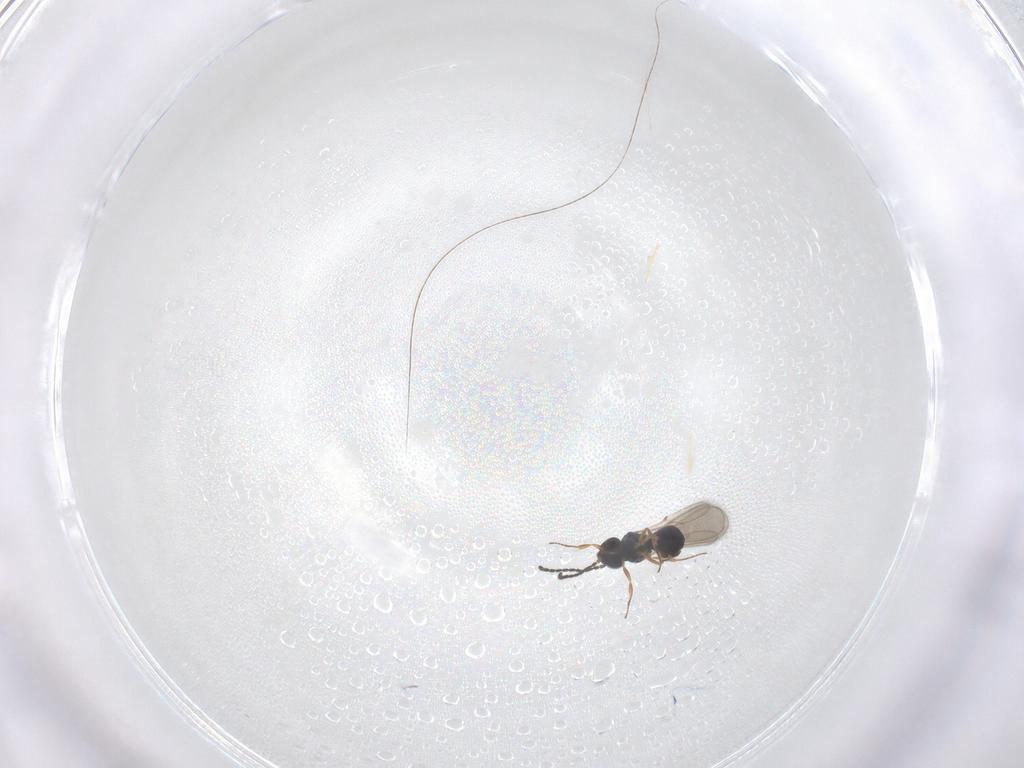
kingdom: Animalia
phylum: Arthropoda
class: Insecta
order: Hymenoptera
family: Scelionidae
